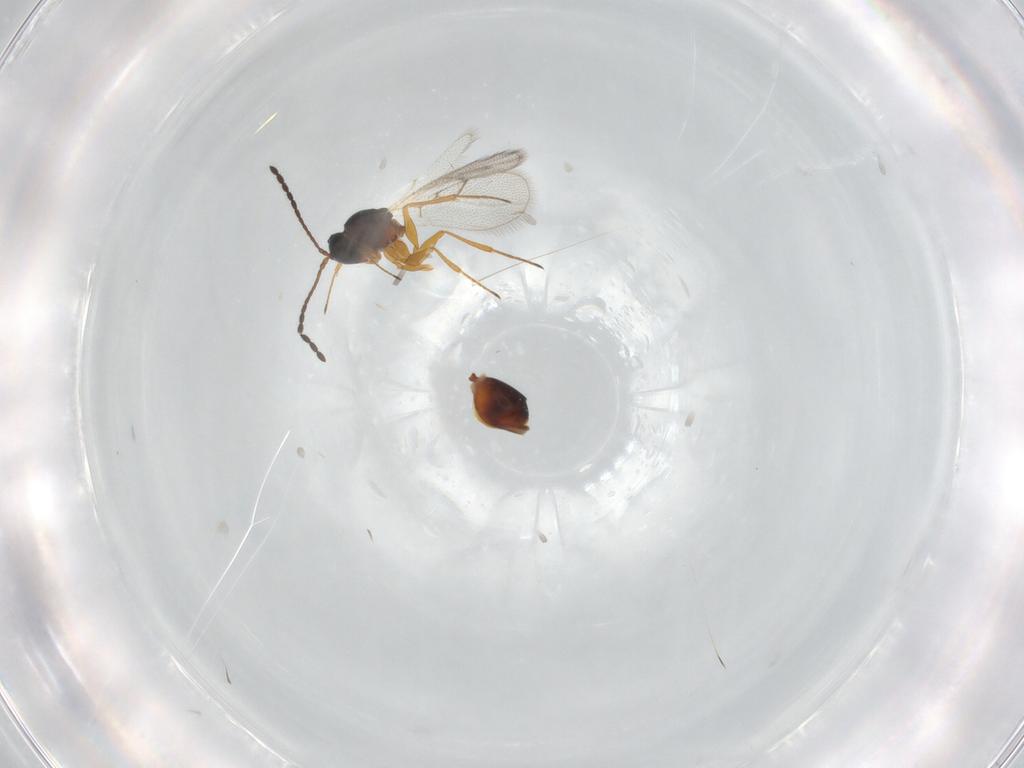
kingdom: Animalia
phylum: Arthropoda
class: Insecta
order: Hymenoptera
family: Figitidae
